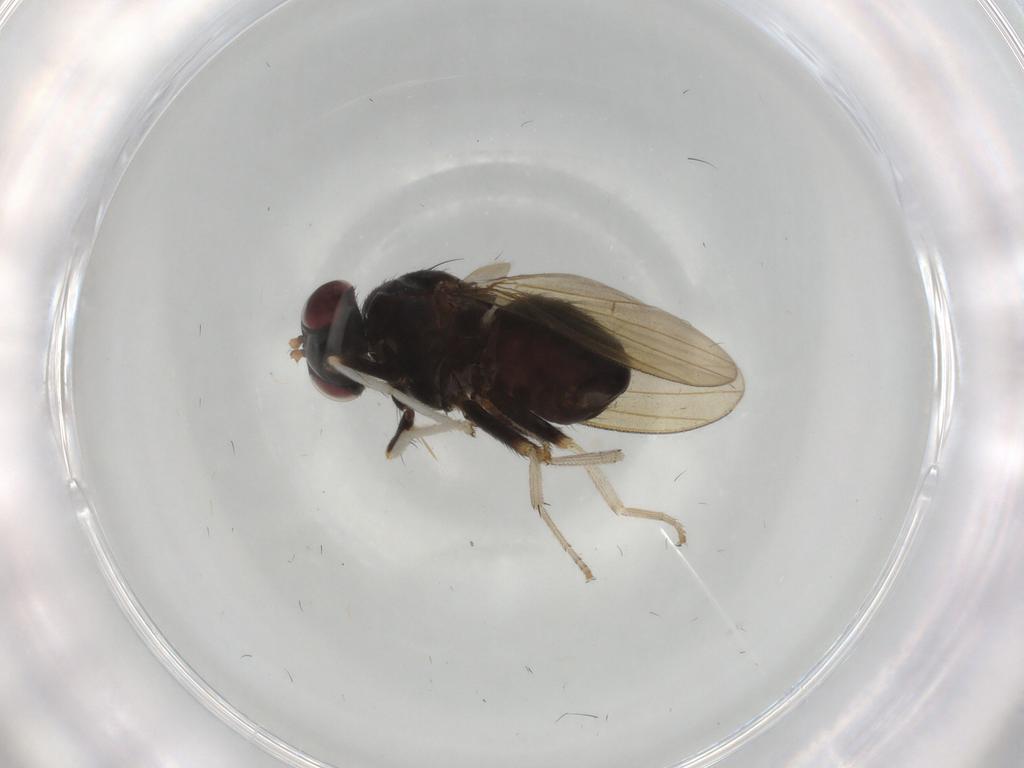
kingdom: Animalia
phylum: Arthropoda
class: Insecta
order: Diptera
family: Lauxaniidae
